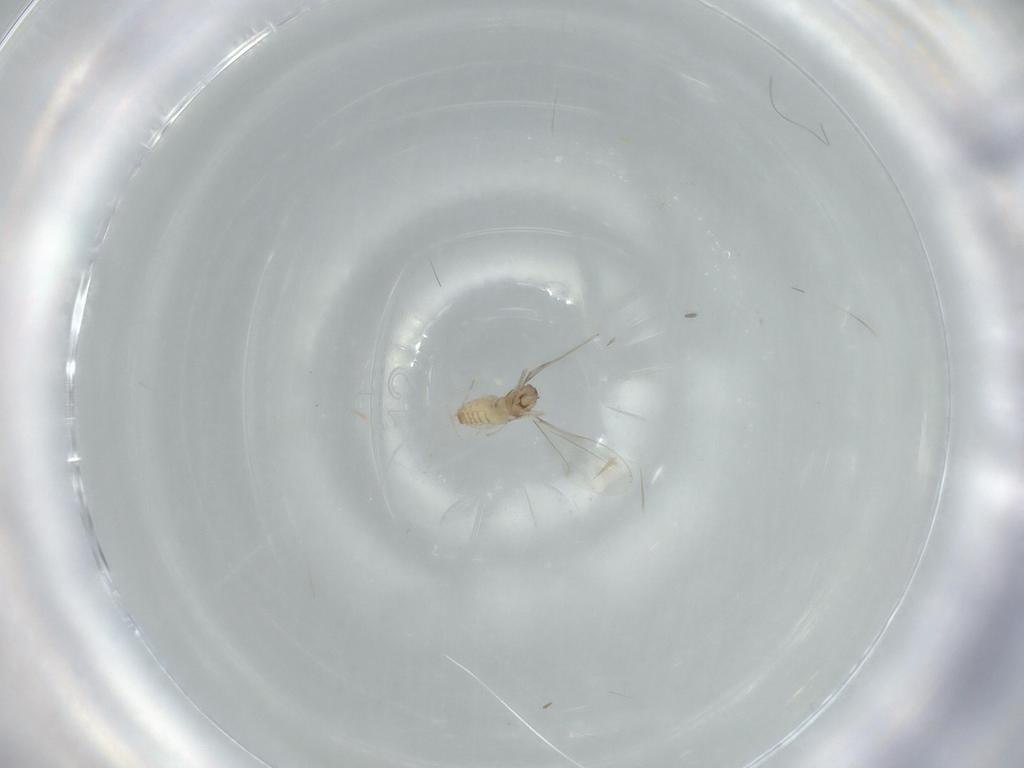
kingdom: Animalia
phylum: Arthropoda
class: Insecta
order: Diptera
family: Cecidomyiidae
